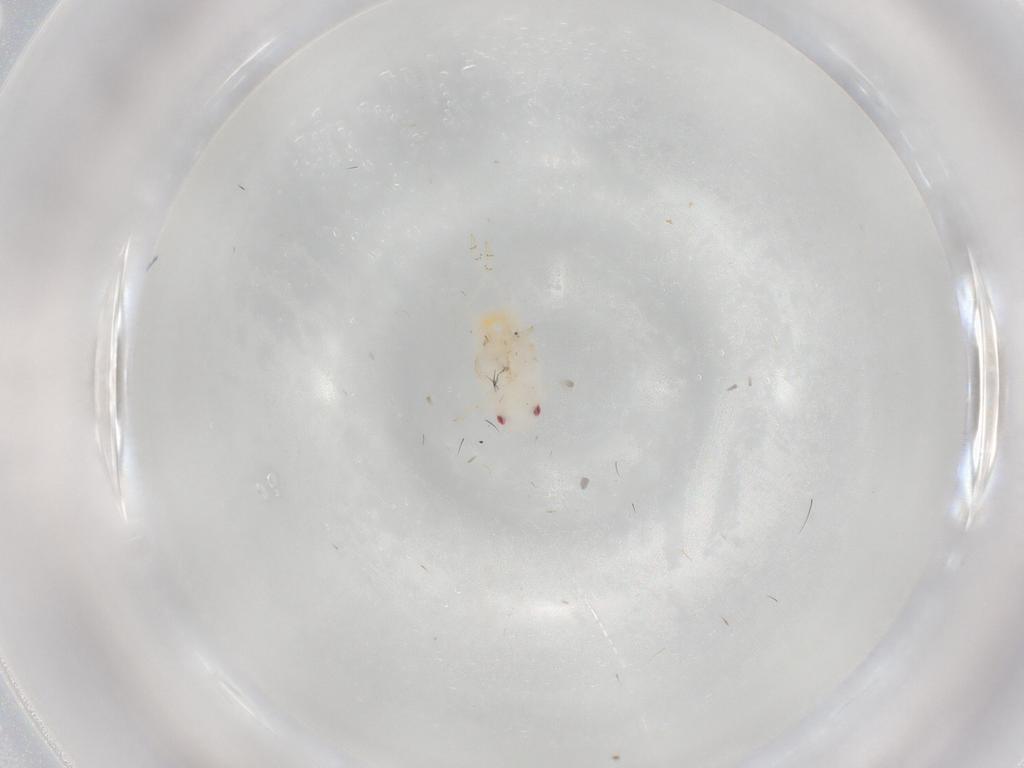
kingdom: Animalia
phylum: Arthropoda
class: Insecta
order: Hemiptera
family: Flatidae
